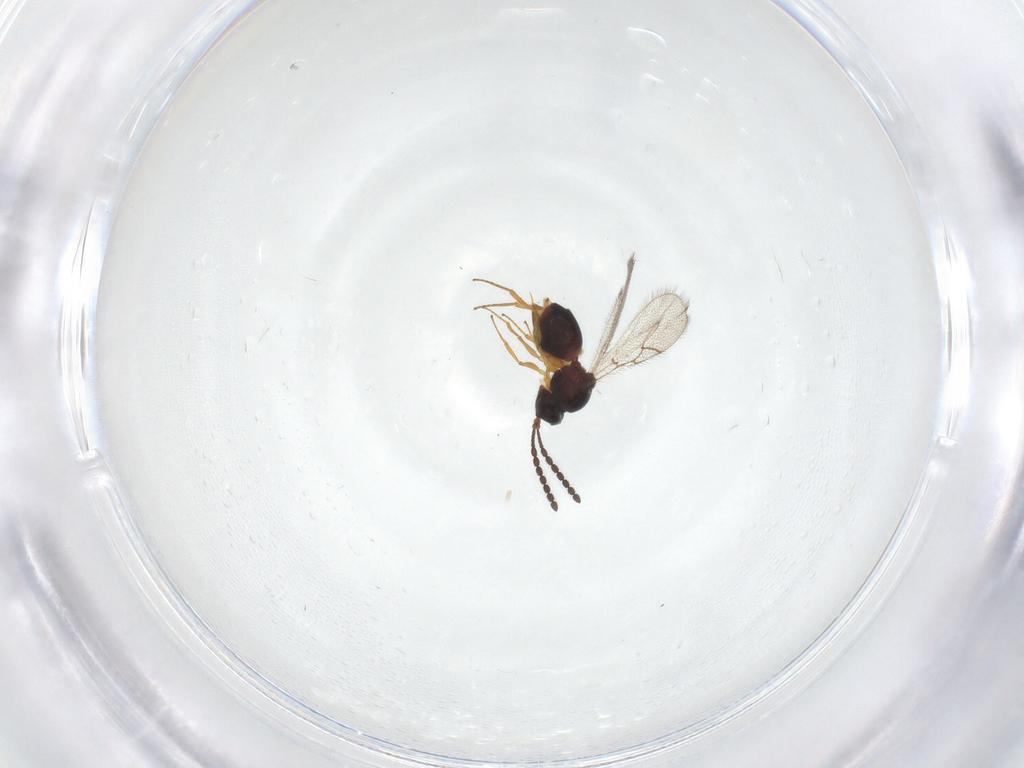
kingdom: Animalia
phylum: Arthropoda
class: Insecta
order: Hymenoptera
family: Figitidae
